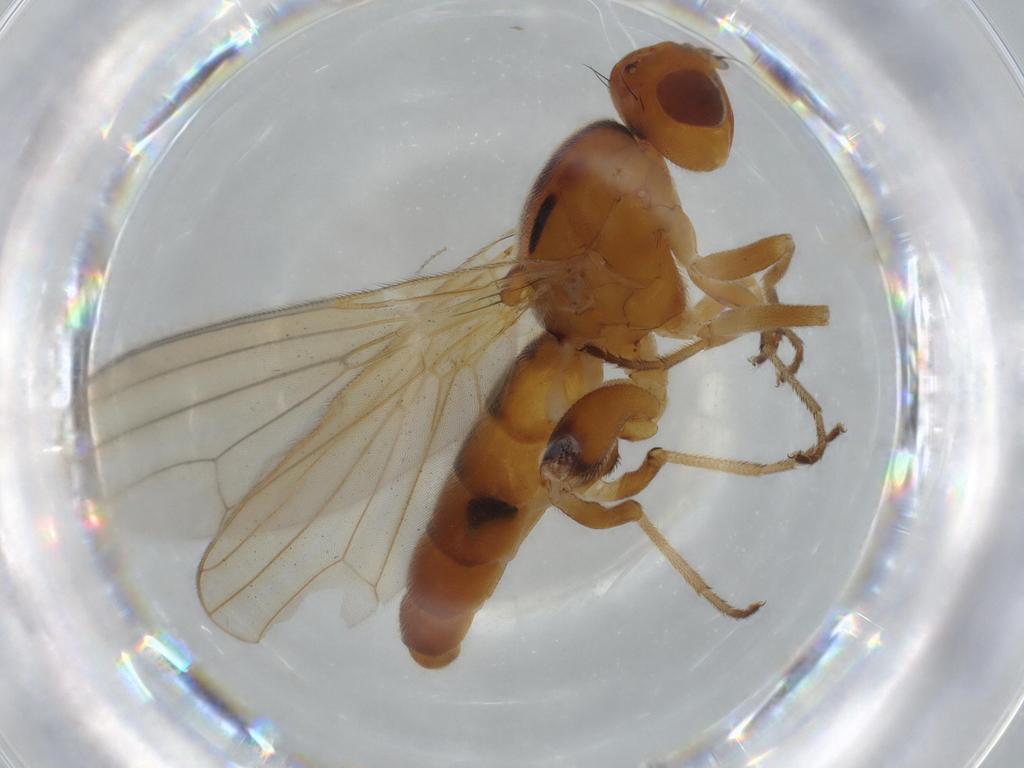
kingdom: Animalia
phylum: Arthropoda
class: Insecta
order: Diptera
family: Cecidomyiidae
